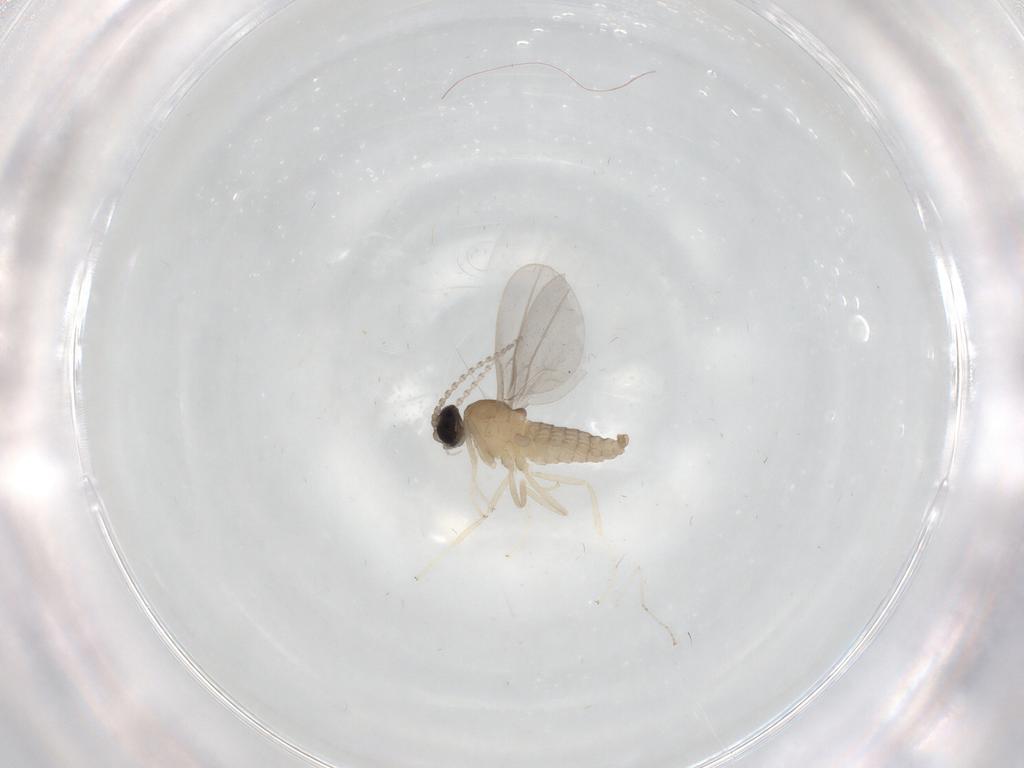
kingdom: Animalia
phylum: Arthropoda
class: Insecta
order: Diptera
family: Cecidomyiidae
